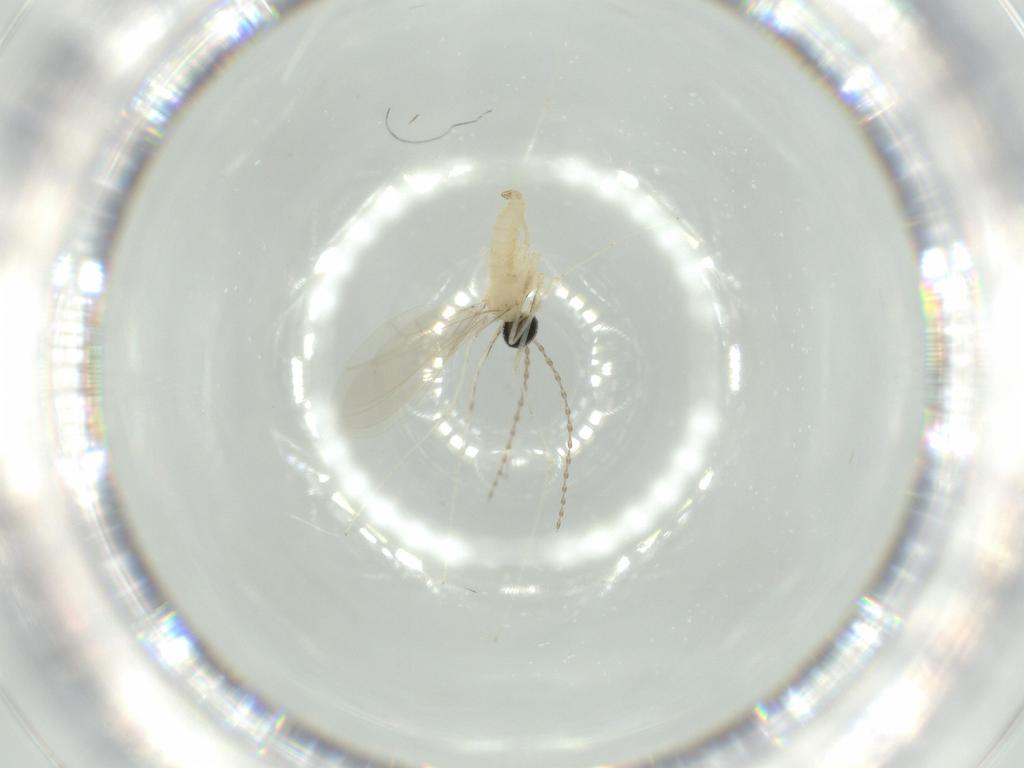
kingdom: Animalia
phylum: Arthropoda
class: Insecta
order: Diptera
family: Cecidomyiidae
